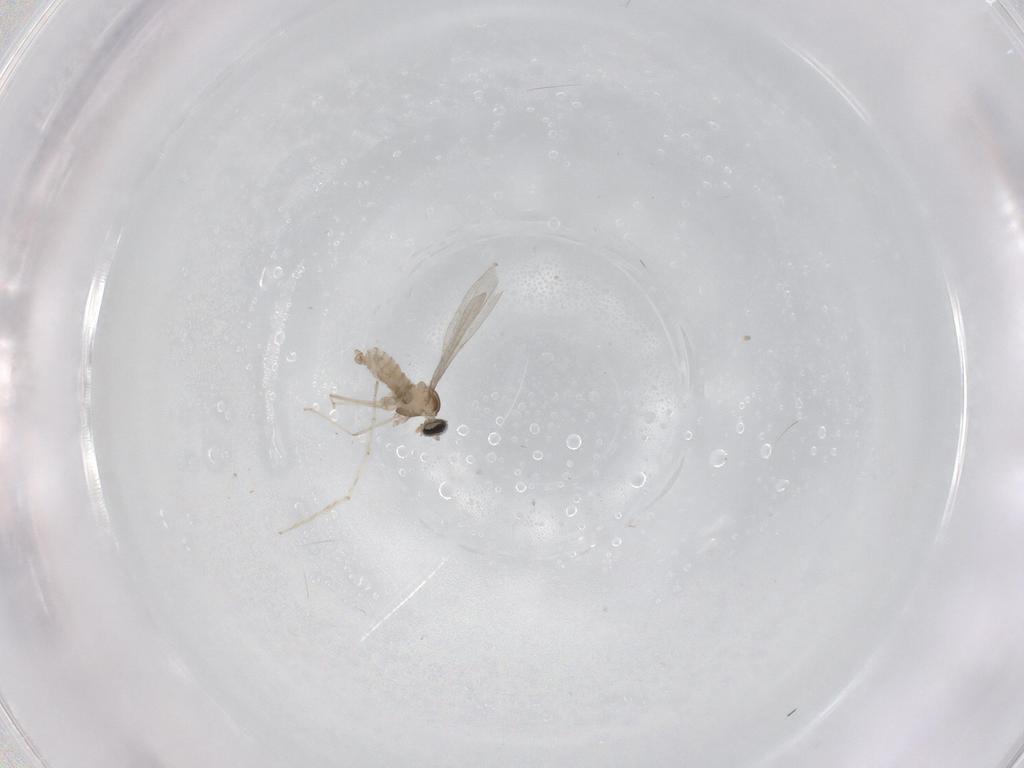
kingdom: Animalia
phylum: Arthropoda
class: Insecta
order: Diptera
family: Chironomidae
